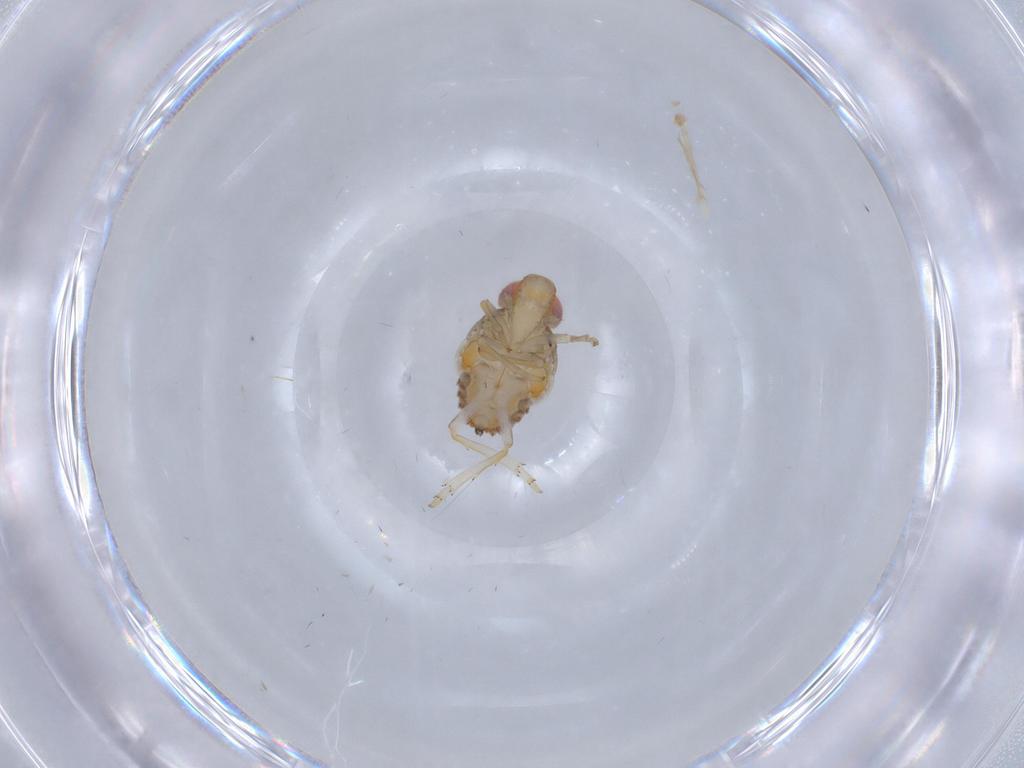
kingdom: Animalia
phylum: Arthropoda
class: Insecta
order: Hemiptera
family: Issidae
